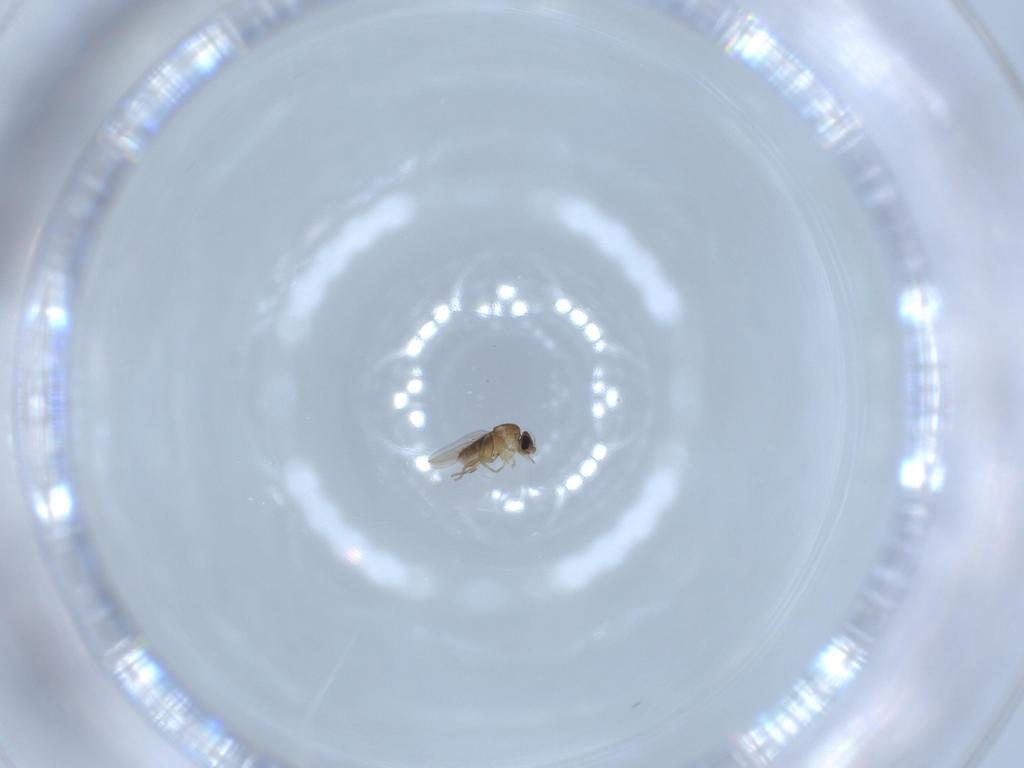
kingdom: Animalia
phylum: Arthropoda
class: Insecta
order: Diptera
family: Phoridae
